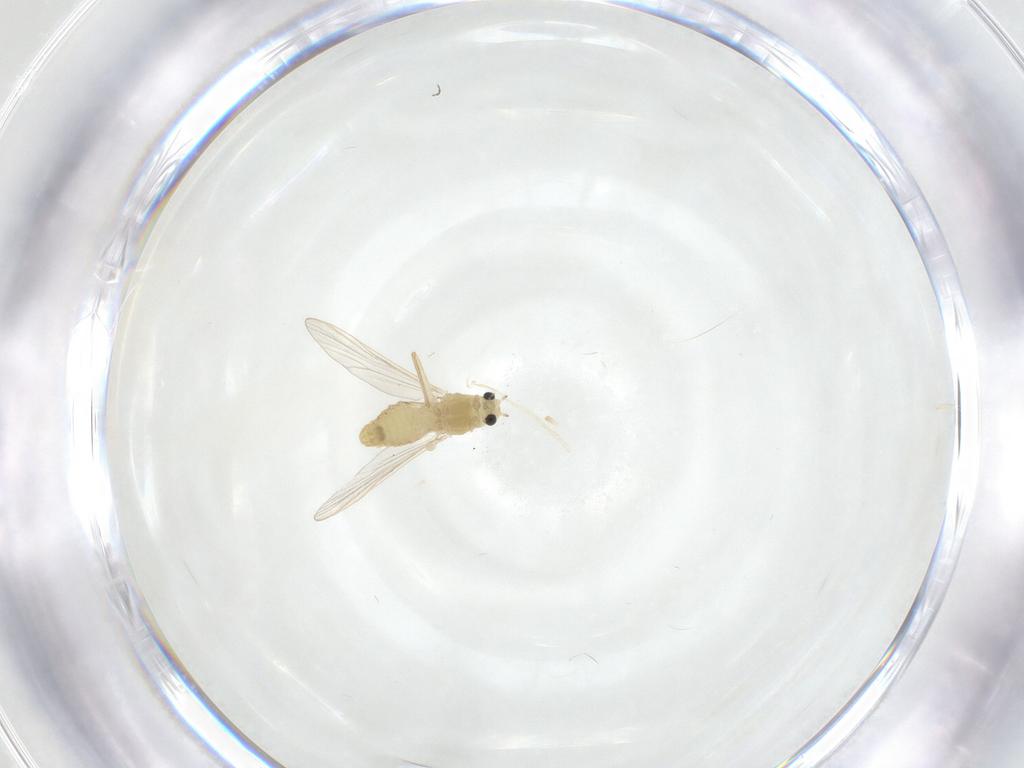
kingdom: Animalia
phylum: Arthropoda
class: Insecta
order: Diptera
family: Chironomidae
